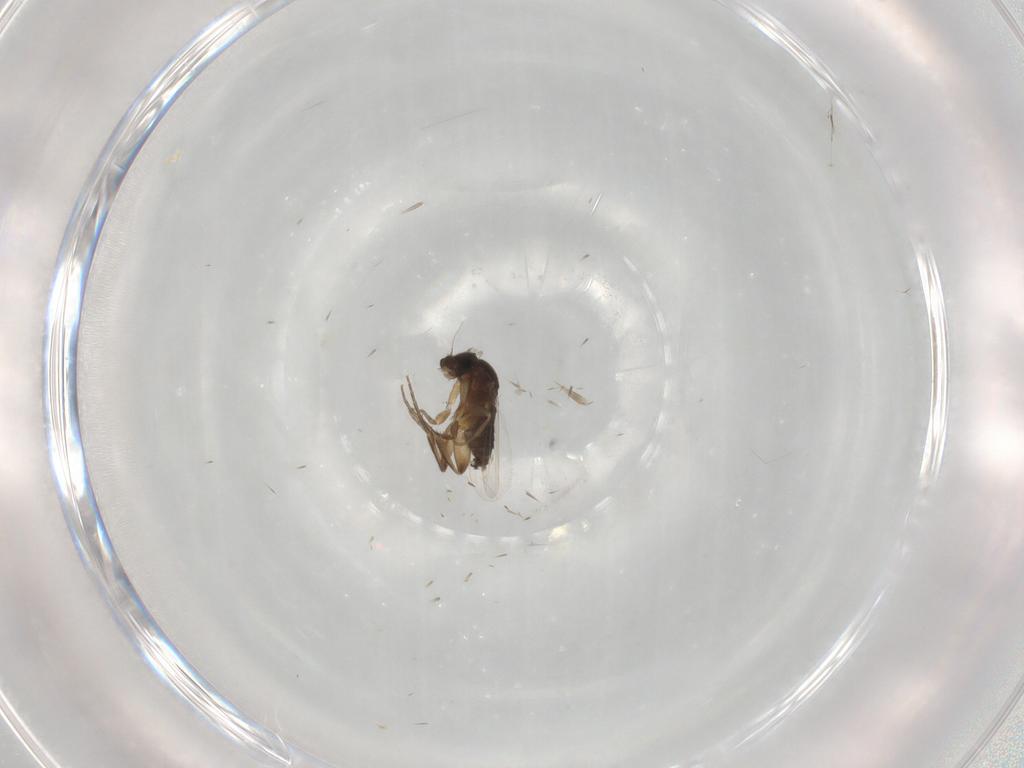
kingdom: Animalia
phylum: Arthropoda
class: Insecta
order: Diptera
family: Phoridae
